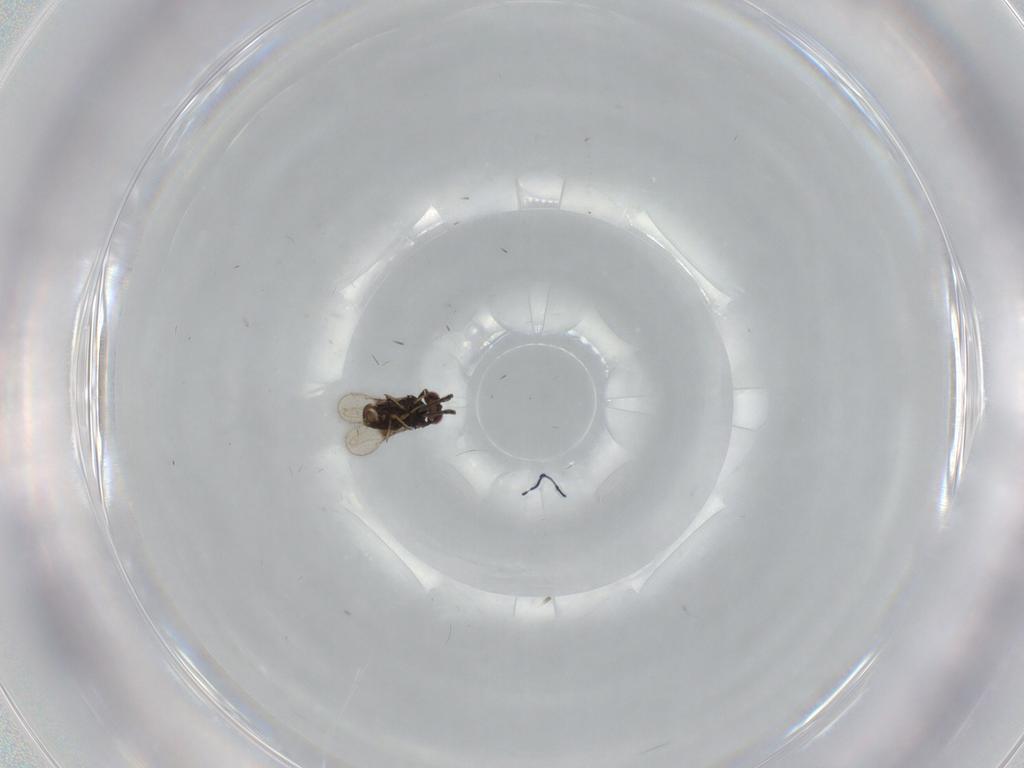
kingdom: Animalia
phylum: Arthropoda
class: Insecta
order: Hymenoptera
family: Azotidae
